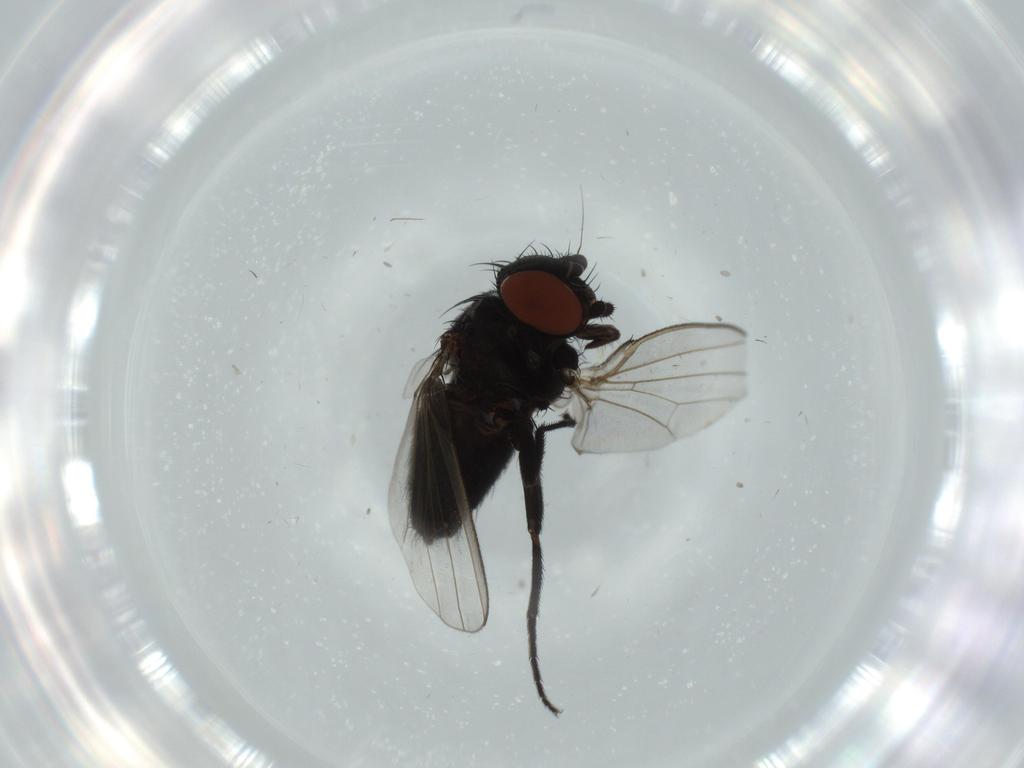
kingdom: Animalia
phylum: Arthropoda
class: Insecta
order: Diptera
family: Milichiidae
